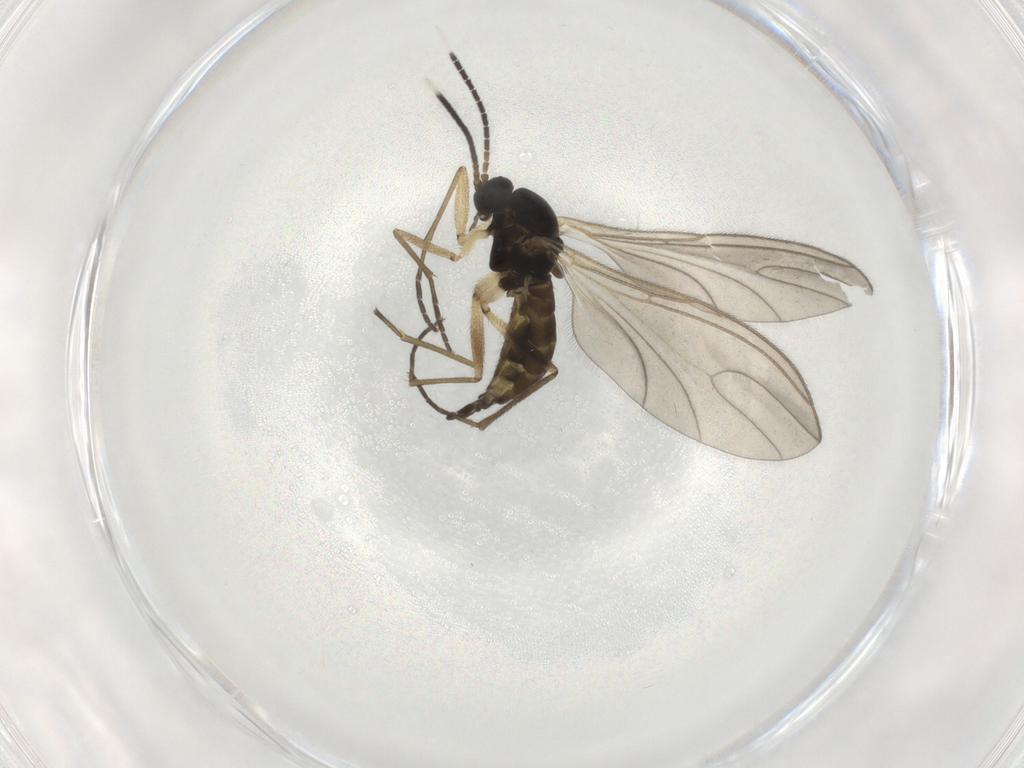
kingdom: Animalia
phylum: Arthropoda
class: Insecta
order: Diptera
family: Sciaridae
